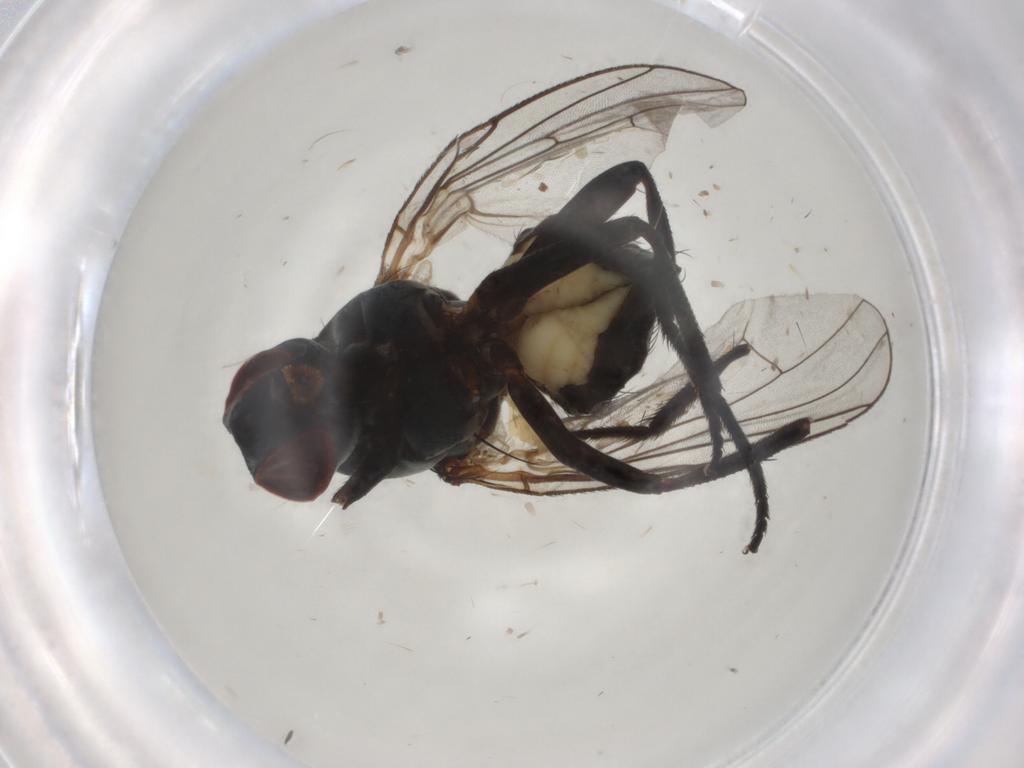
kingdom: Animalia
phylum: Arthropoda
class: Insecta
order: Diptera
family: Anthomyiidae
